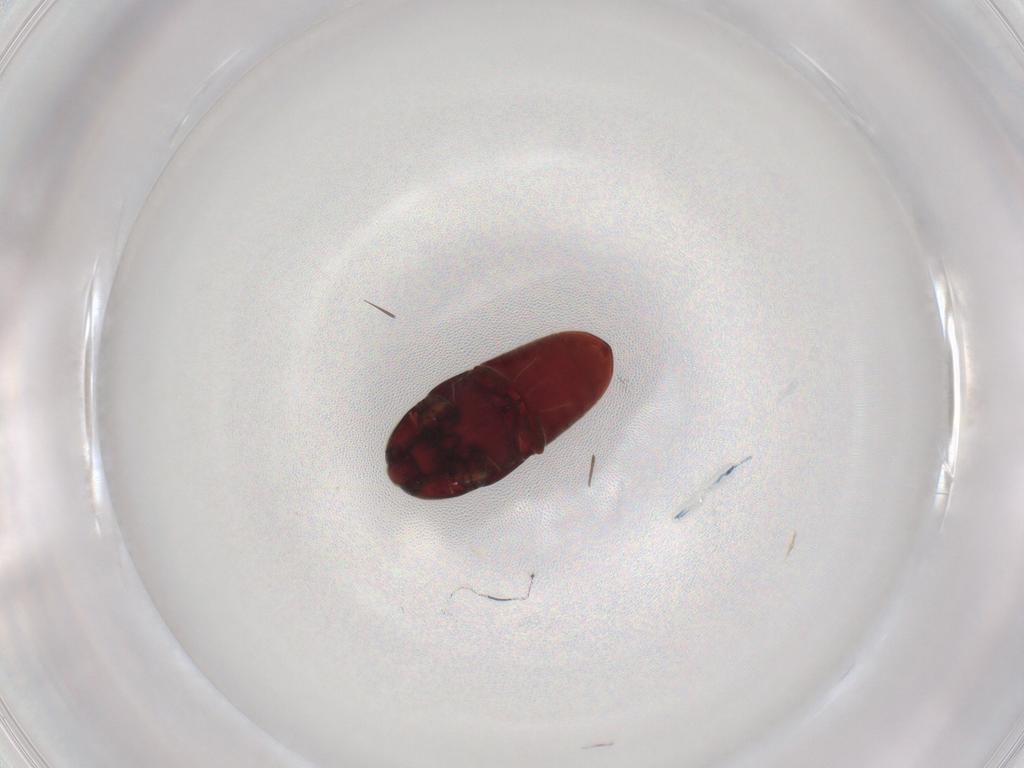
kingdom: Animalia
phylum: Arthropoda
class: Insecta
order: Coleoptera
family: Throscidae
